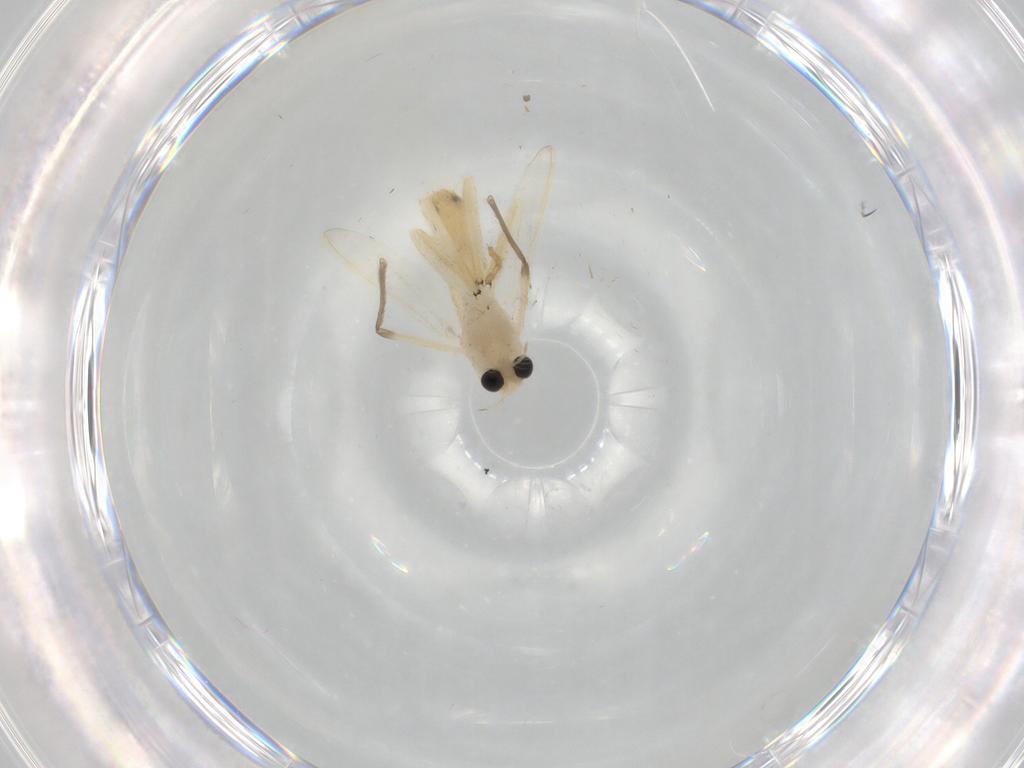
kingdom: Animalia
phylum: Arthropoda
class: Insecta
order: Diptera
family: Chironomidae
